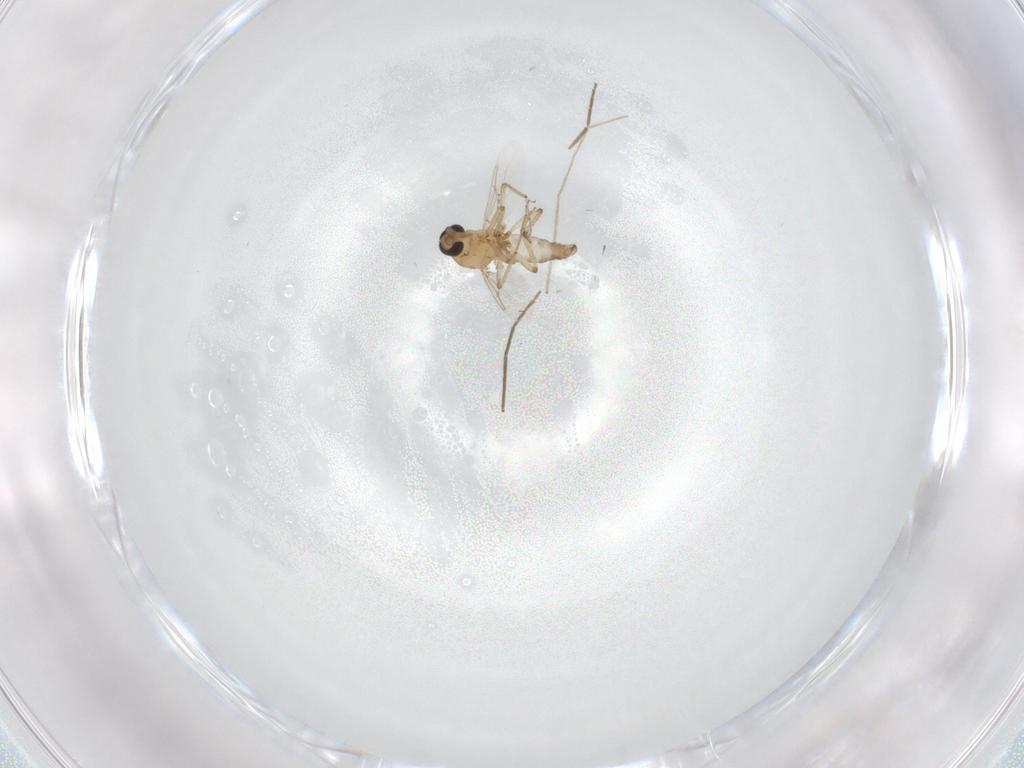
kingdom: Animalia
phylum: Arthropoda
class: Insecta
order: Diptera
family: Ceratopogonidae
